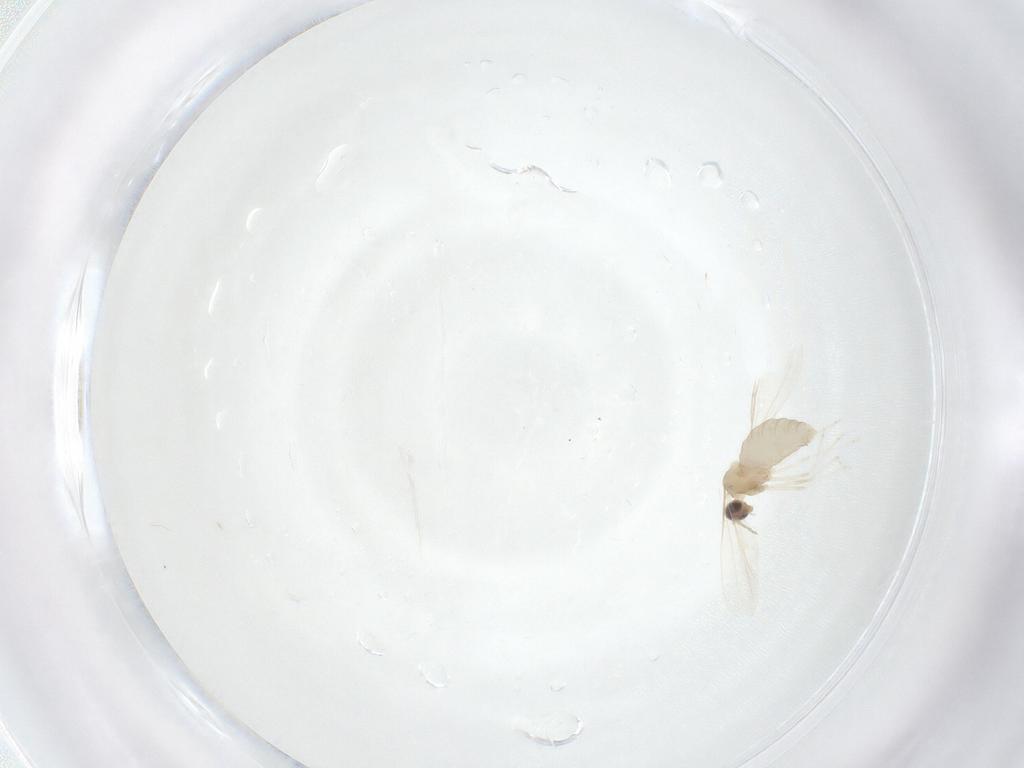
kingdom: Animalia
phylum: Arthropoda
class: Insecta
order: Diptera
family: Cecidomyiidae
